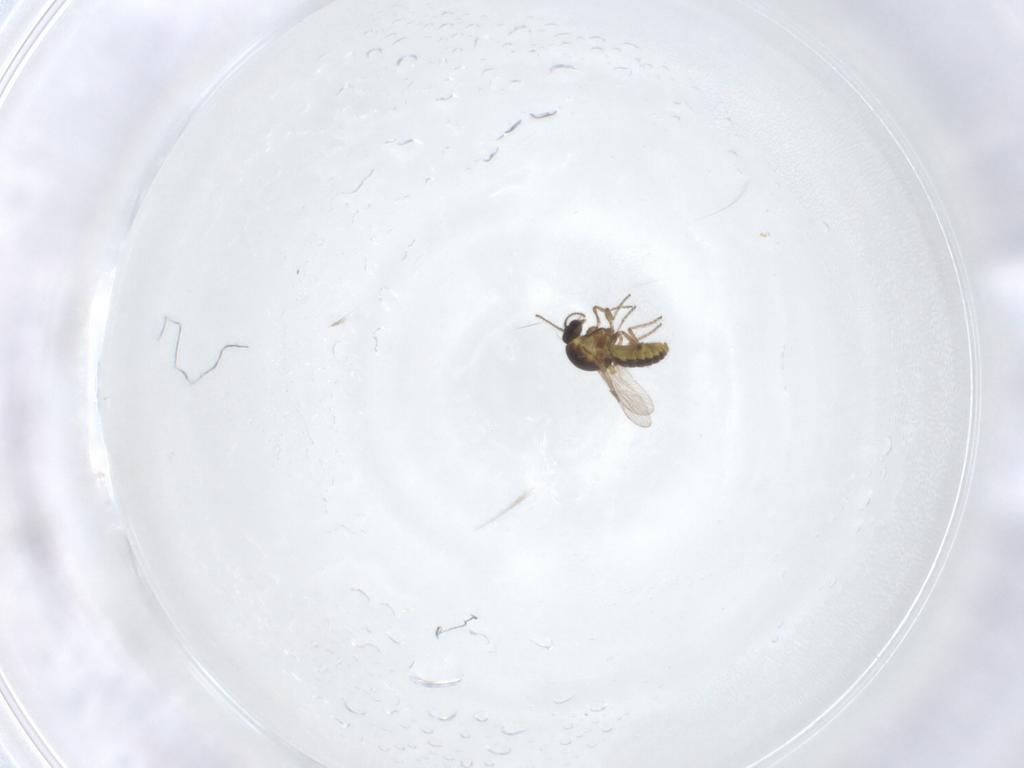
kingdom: Animalia
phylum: Arthropoda
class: Insecta
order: Diptera
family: Ceratopogonidae
